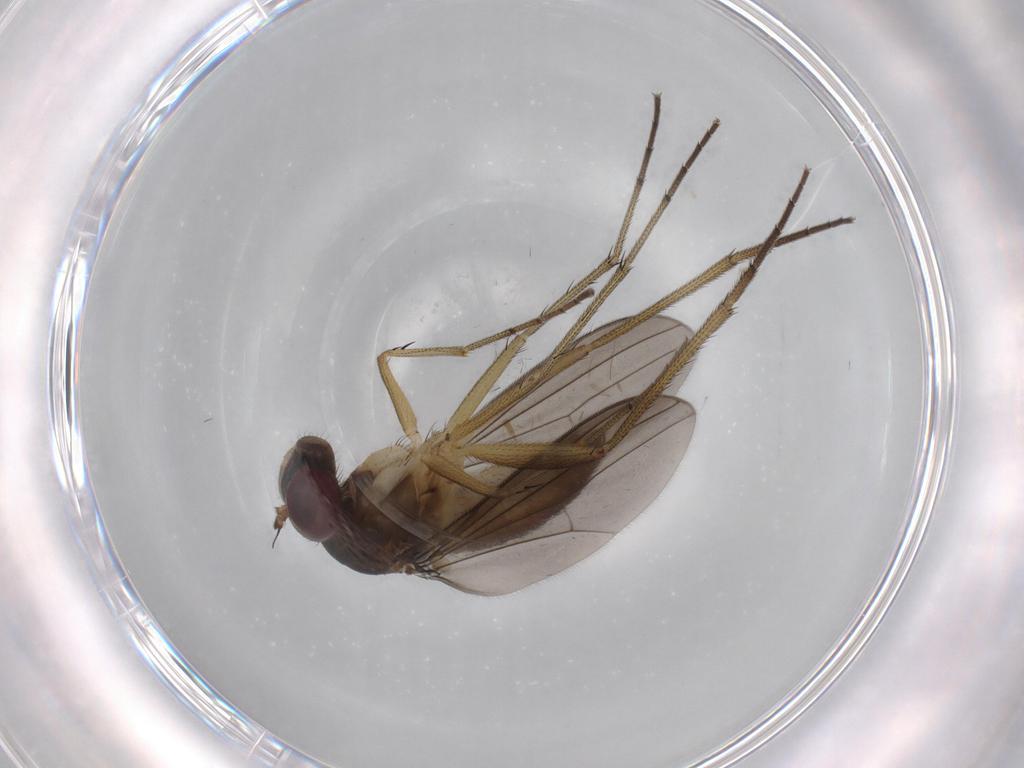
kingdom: Animalia
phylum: Arthropoda
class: Insecta
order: Diptera
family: Dolichopodidae
